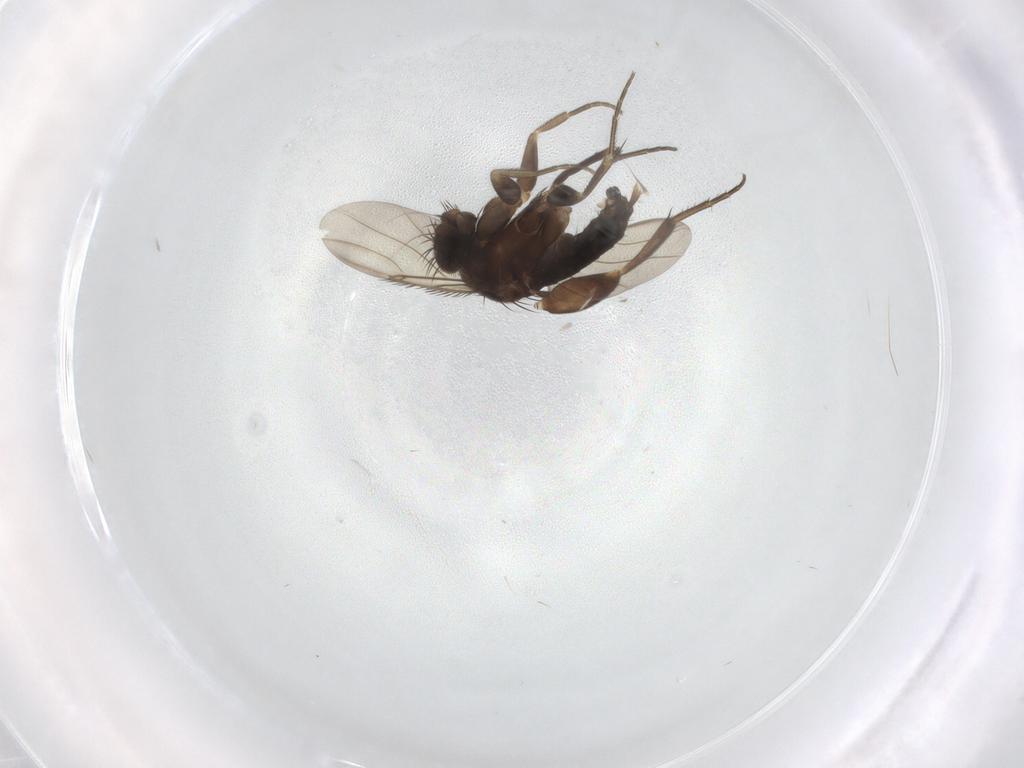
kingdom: Animalia
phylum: Arthropoda
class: Insecta
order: Diptera
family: Phoridae
